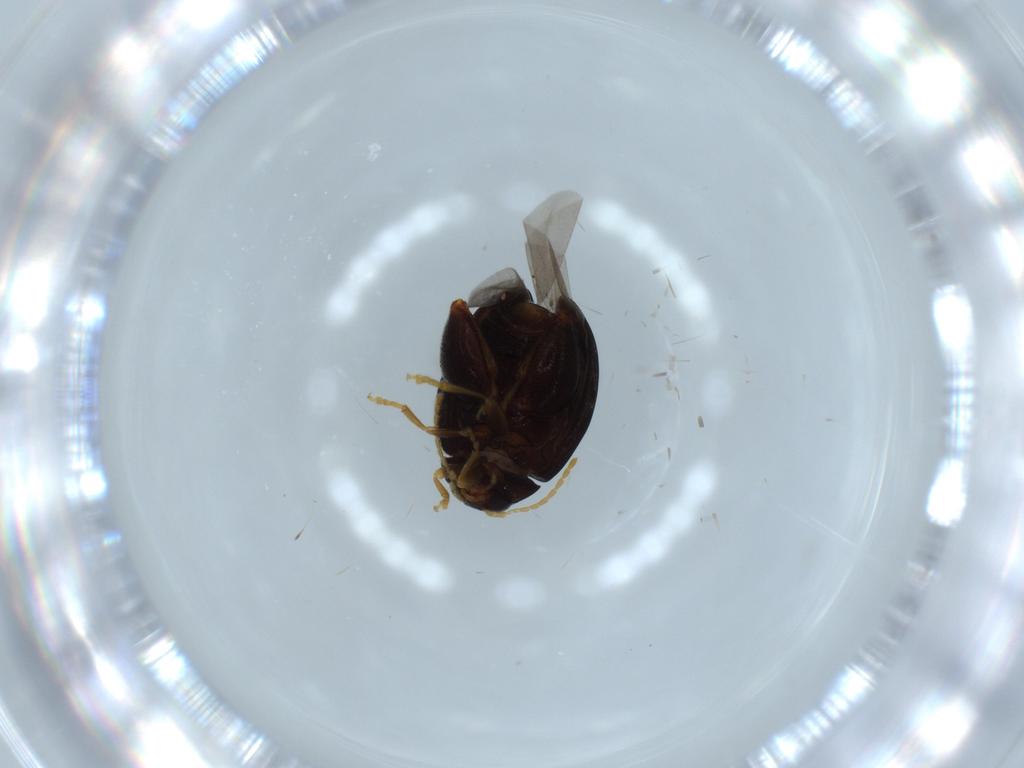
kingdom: Animalia
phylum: Arthropoda
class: Insecta
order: Coleoptera
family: Chrysomelidae
